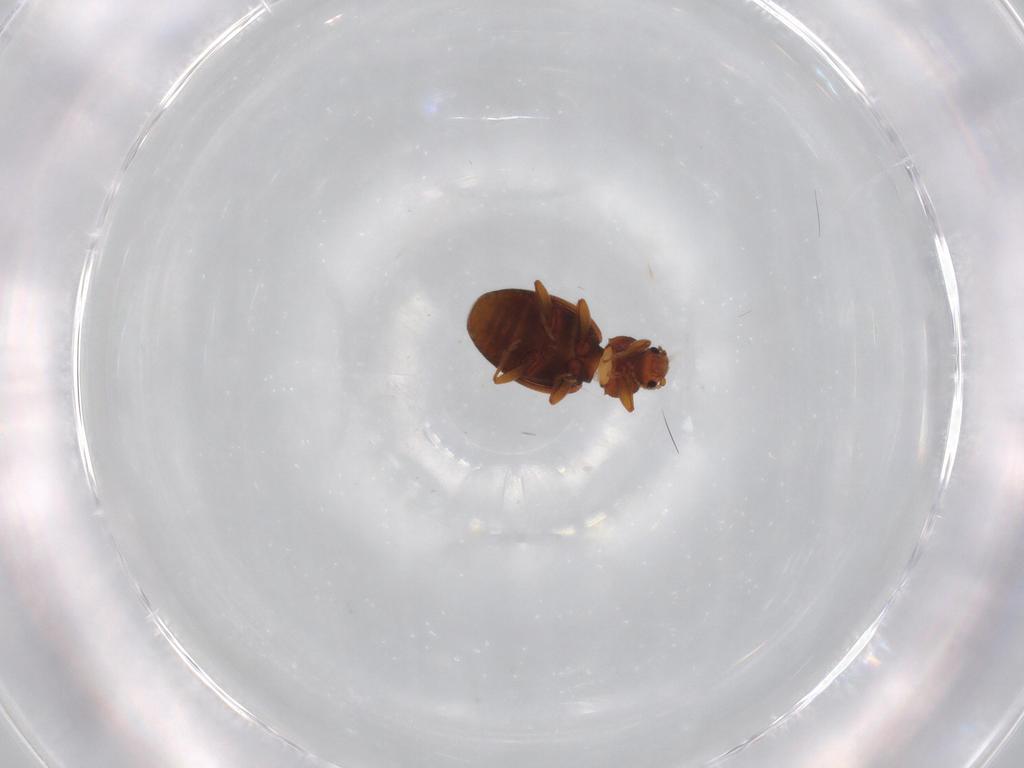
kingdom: Animalia
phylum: Arthropoda
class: Insecta
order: Coleoptera
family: Latridiidae
